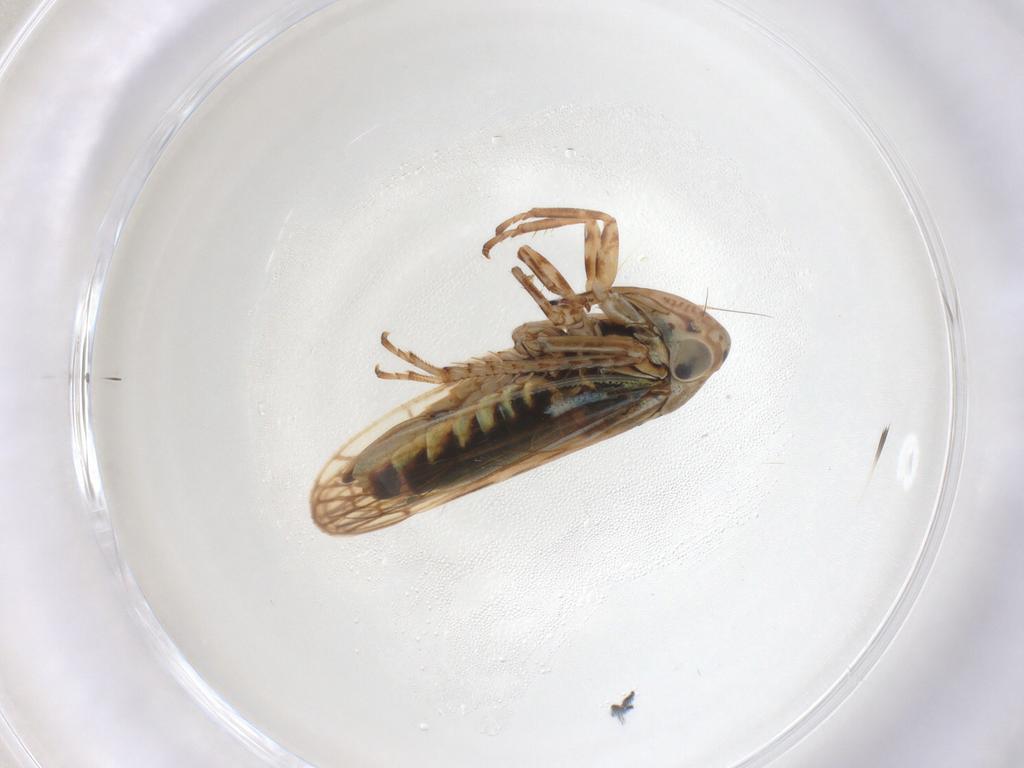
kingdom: Animalia
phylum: Arthropoda
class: Insecta
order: Hemiptera
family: Cicadellidae
